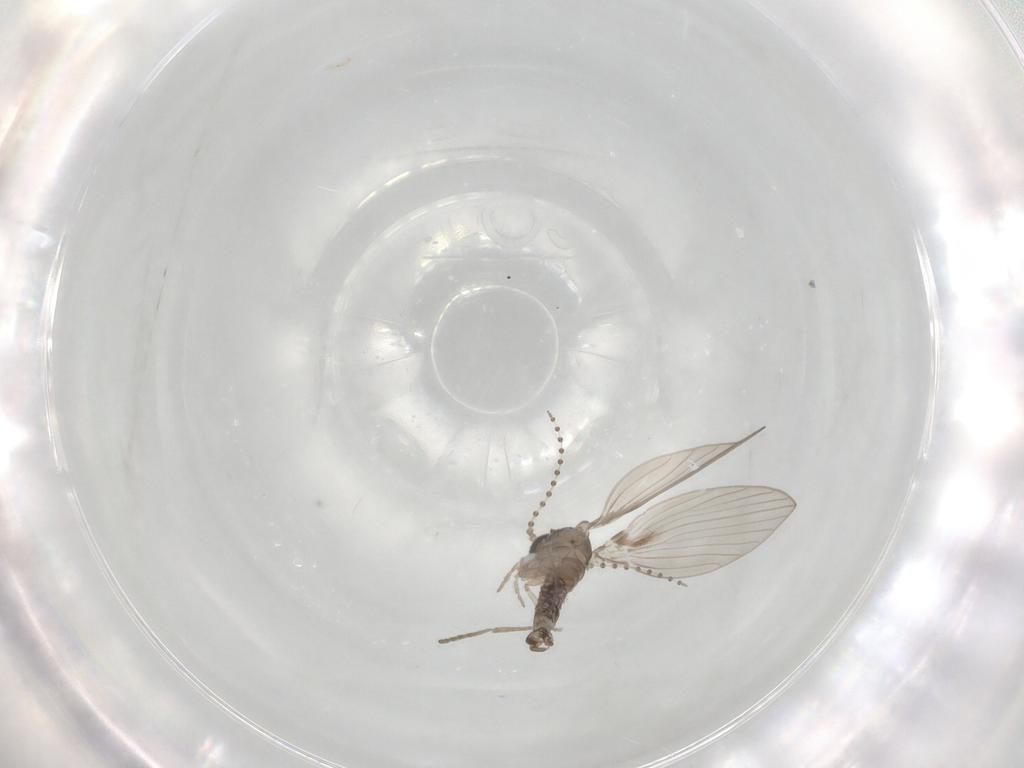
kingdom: Animalia
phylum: Arthropoda
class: Insecta
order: Diptera
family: Psychodidae
